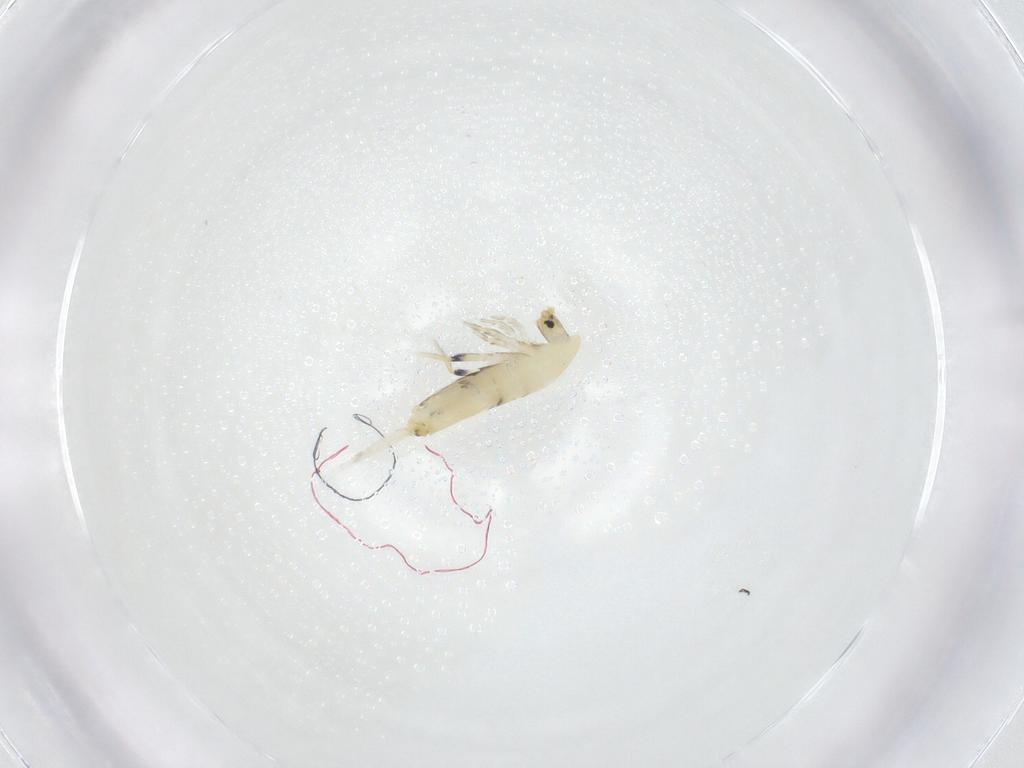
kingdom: Animalia
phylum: Arthropoda
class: Collembola
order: Entomobryomorpha
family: Entomobryidae
